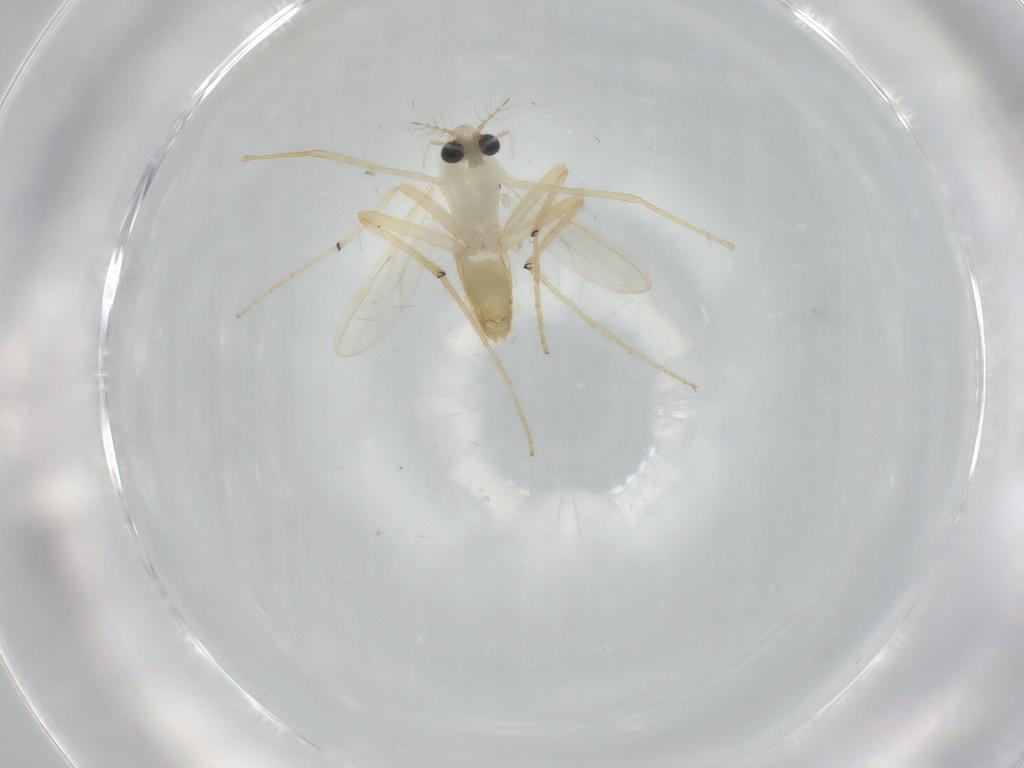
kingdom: Animalia
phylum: Arthropoda
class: Insecta
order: Diptera
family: Chironomidae
